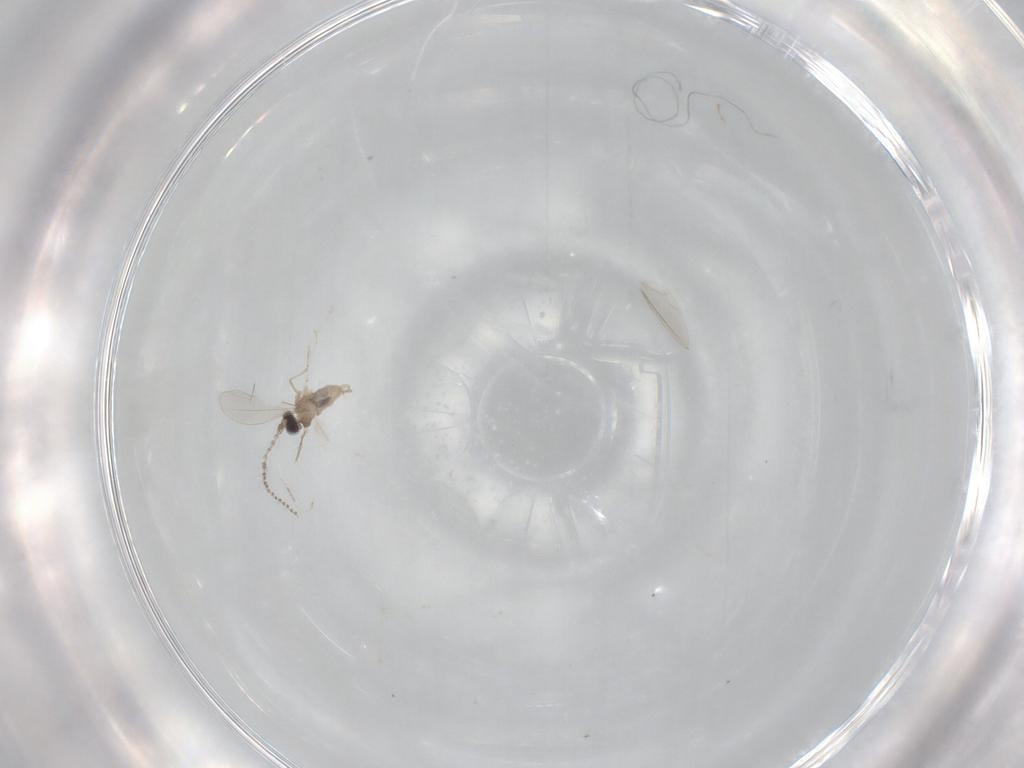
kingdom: Animalia
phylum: Arthropoda
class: Insecta
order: Diptera
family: Cecidomyiidae
